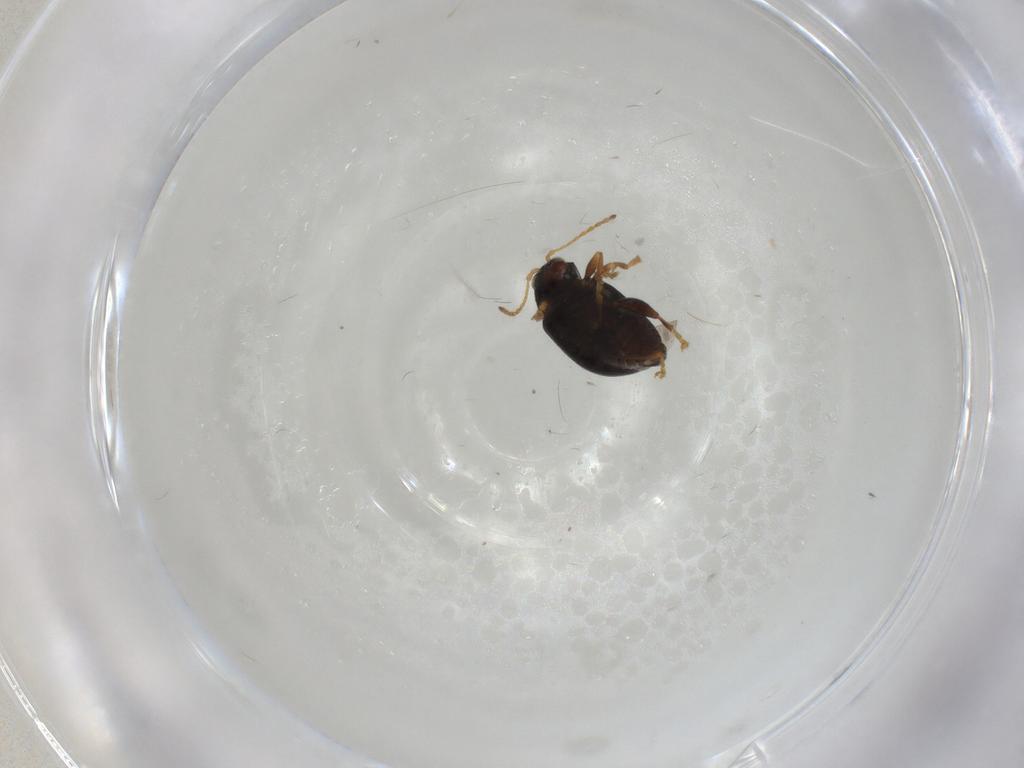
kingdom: Animalia
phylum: Arthropoda
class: Insecta
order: Coleoptera
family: Chrysomelidae
